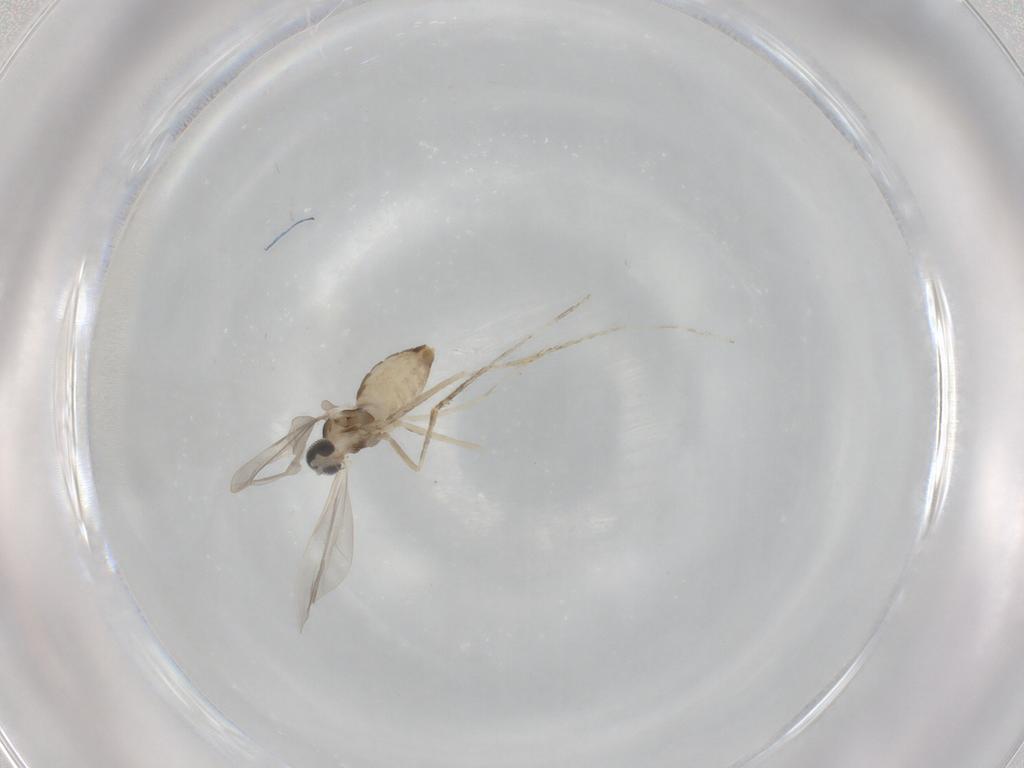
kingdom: Animalia
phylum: Arthropoda
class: Insecta
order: Diptera
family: Cecidomyiidae
